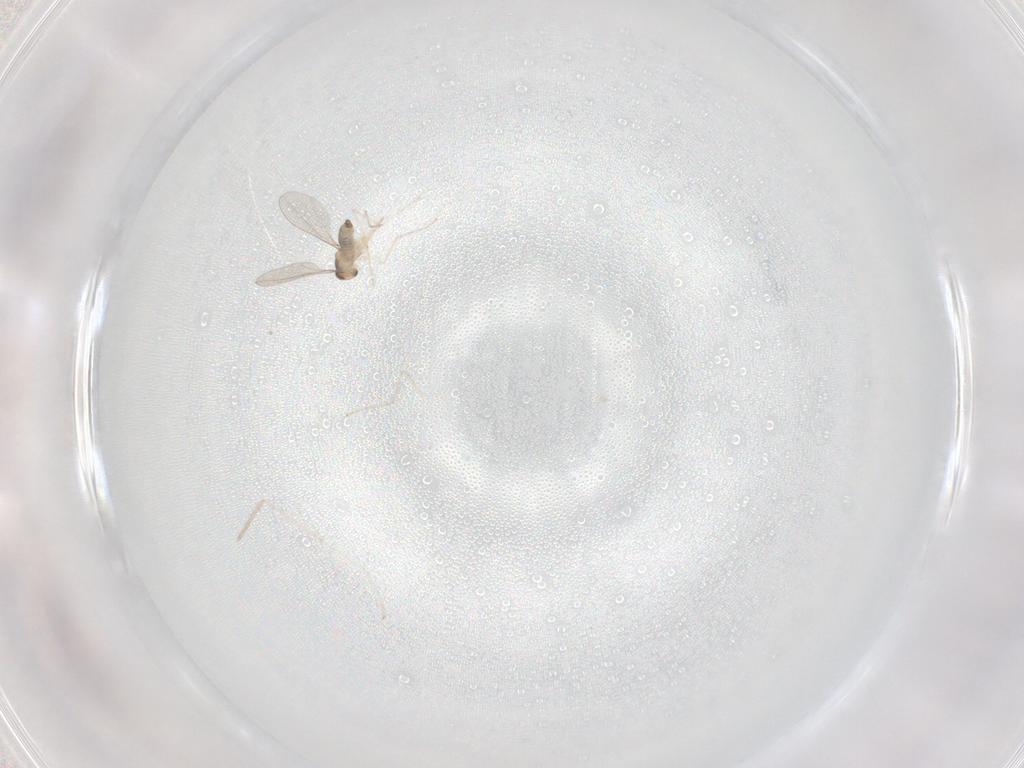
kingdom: Animalia
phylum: Arthropoda
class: Insecta
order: Diptera
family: Cecidomyiidae
